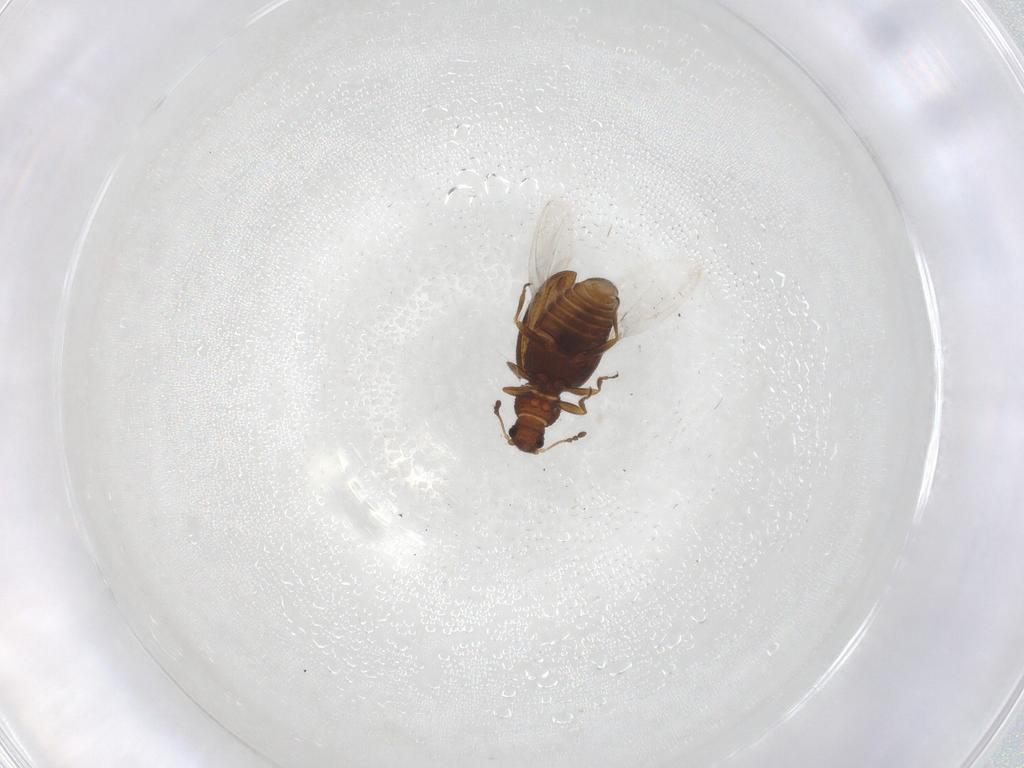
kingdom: Animalia
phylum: Arthropoda
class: Insecta
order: Coleoptera
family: Latridiidae
